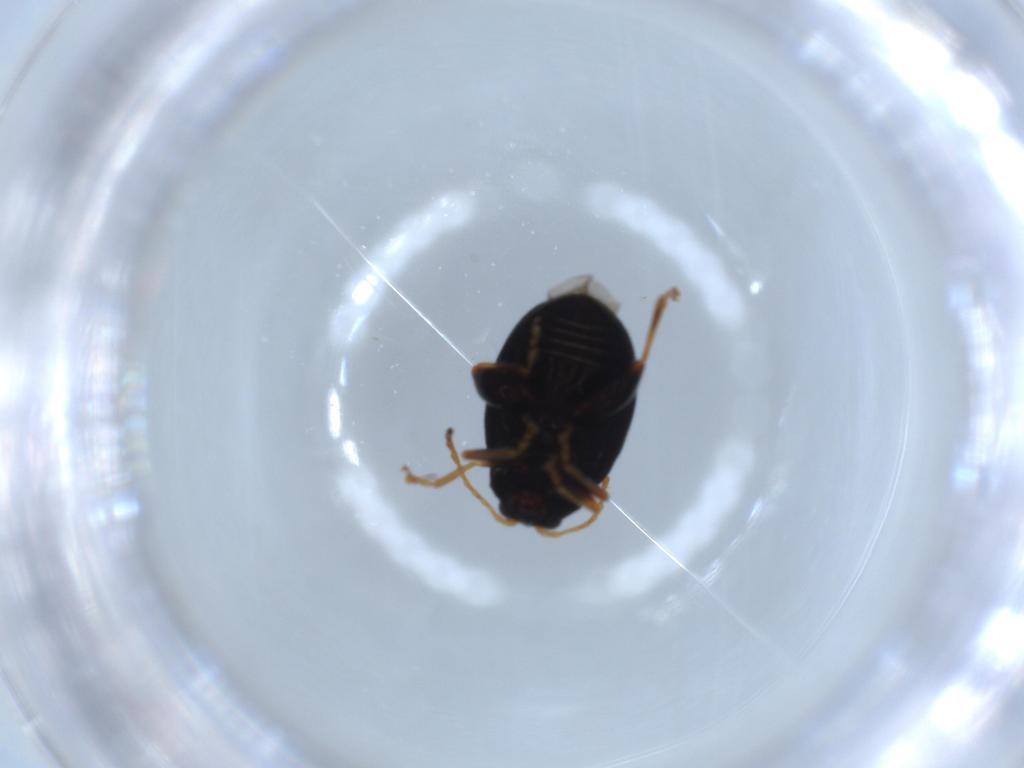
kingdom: Animalia
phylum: Arthropoda
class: Insecta
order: Coleoptera
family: Chrysomelidae
